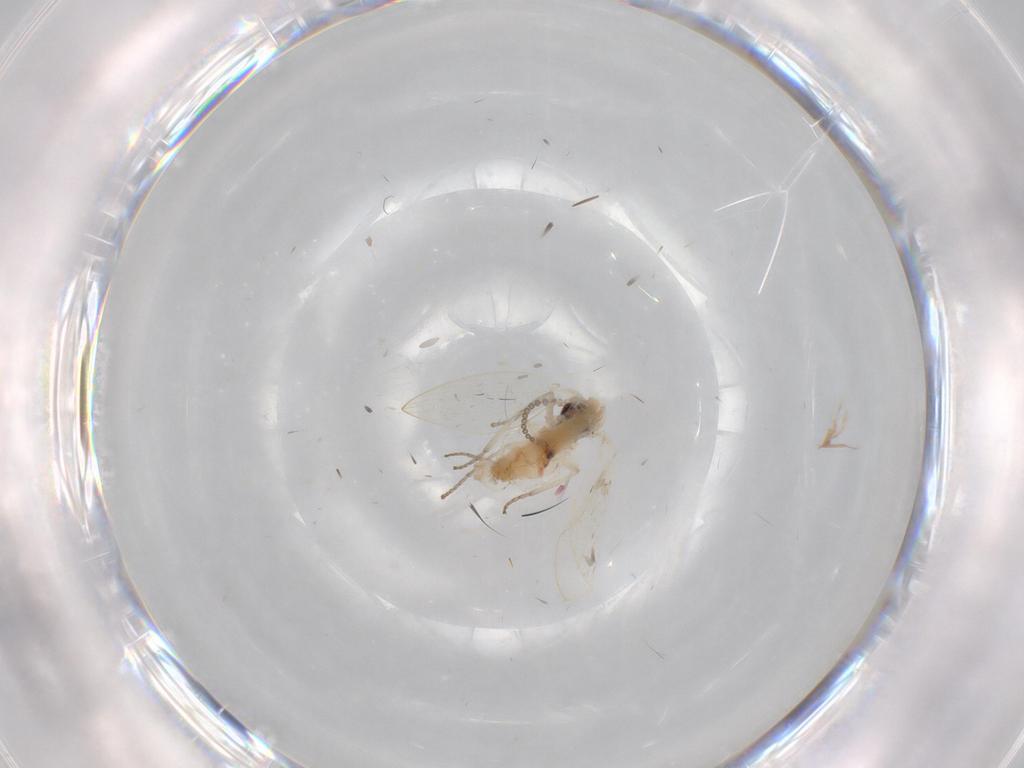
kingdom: Animalia
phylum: Arthropoda
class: Insecta
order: Diptera
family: Psychodidae
